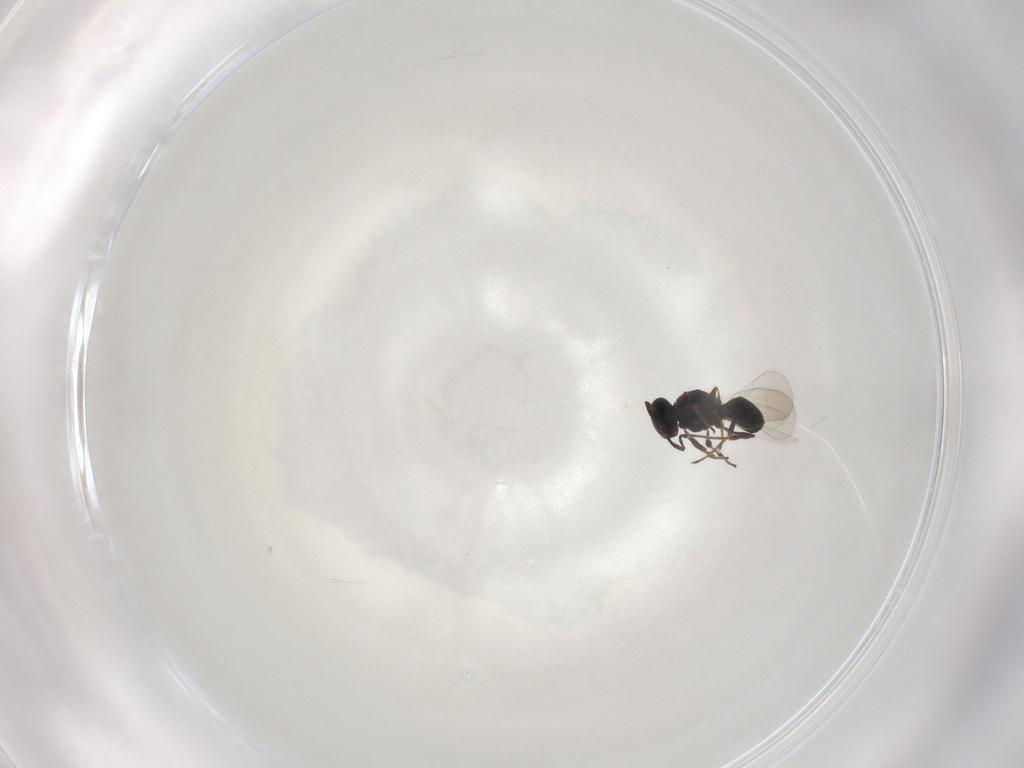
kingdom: Animalia
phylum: Arthropoda
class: Insecta
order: Hymenoptera
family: Platygastridae
